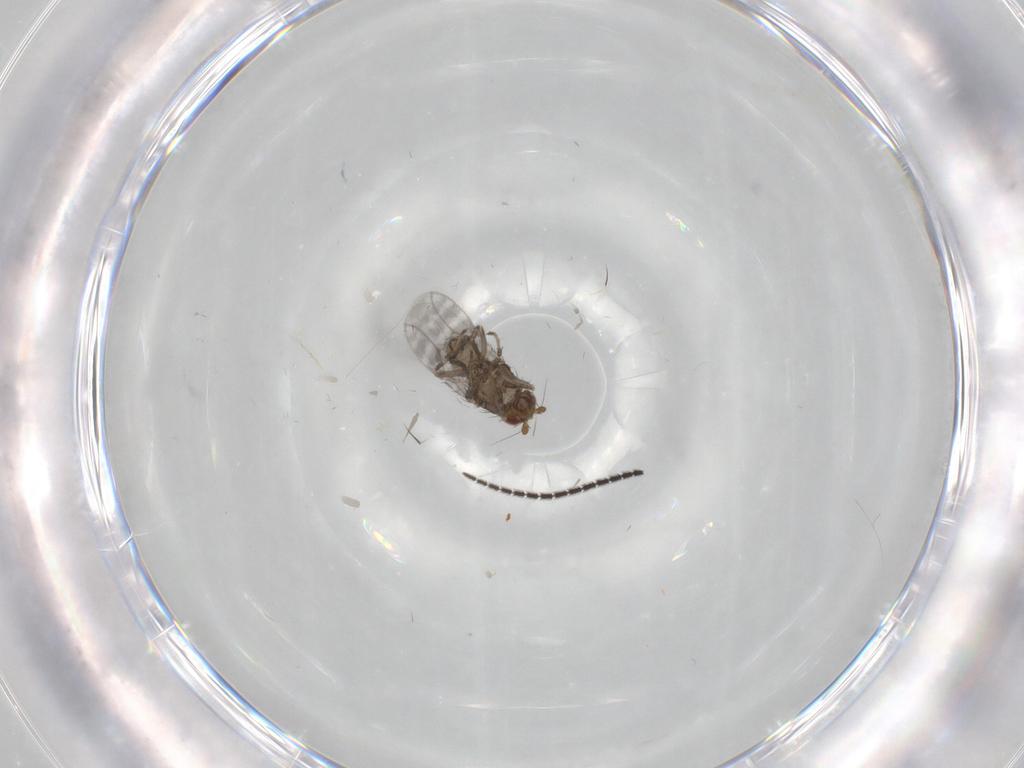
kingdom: Animalia
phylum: Arthropoda
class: Insecta
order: Diptera
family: Sphaeroceridae
